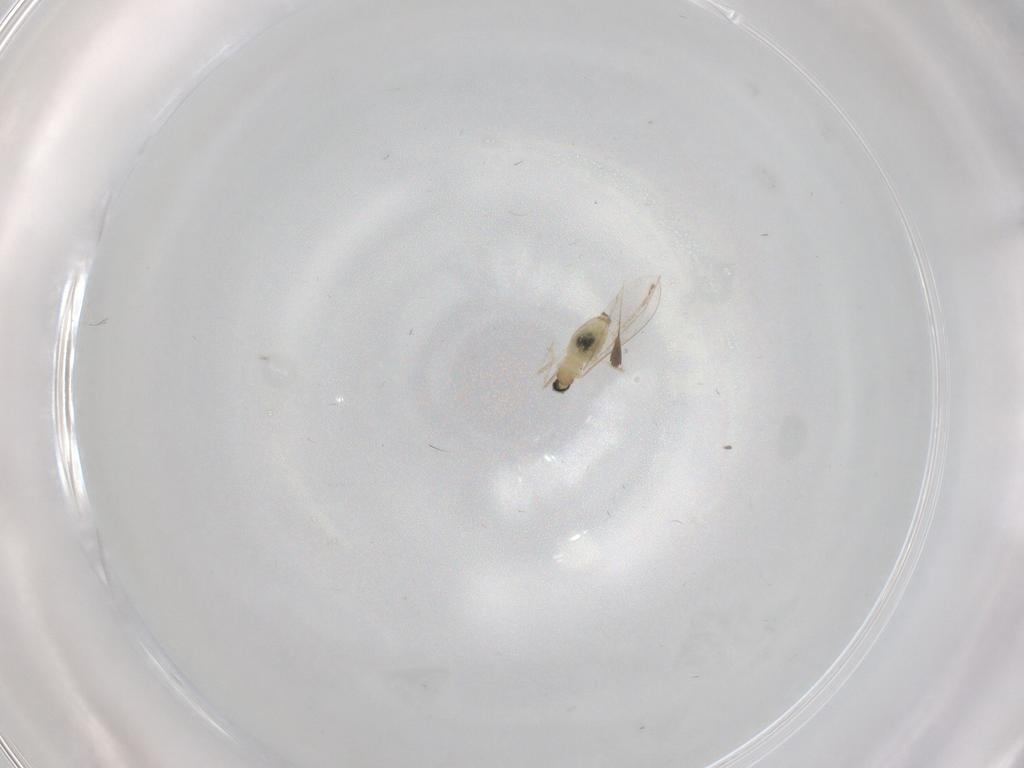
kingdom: Animalia
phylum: Arthropoda
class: Insecta
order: Diptera
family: Cecidomyiidae
